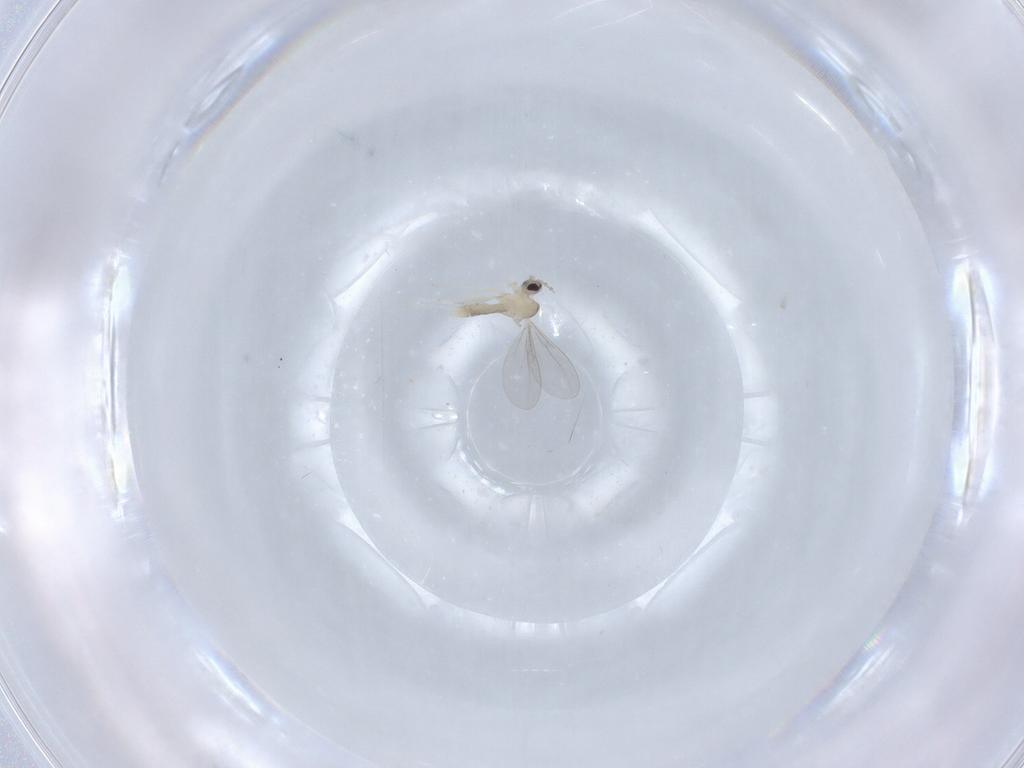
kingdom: Animalia
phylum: Arthropoda
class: Insecta
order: Diptera
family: Cecidomyiidae
